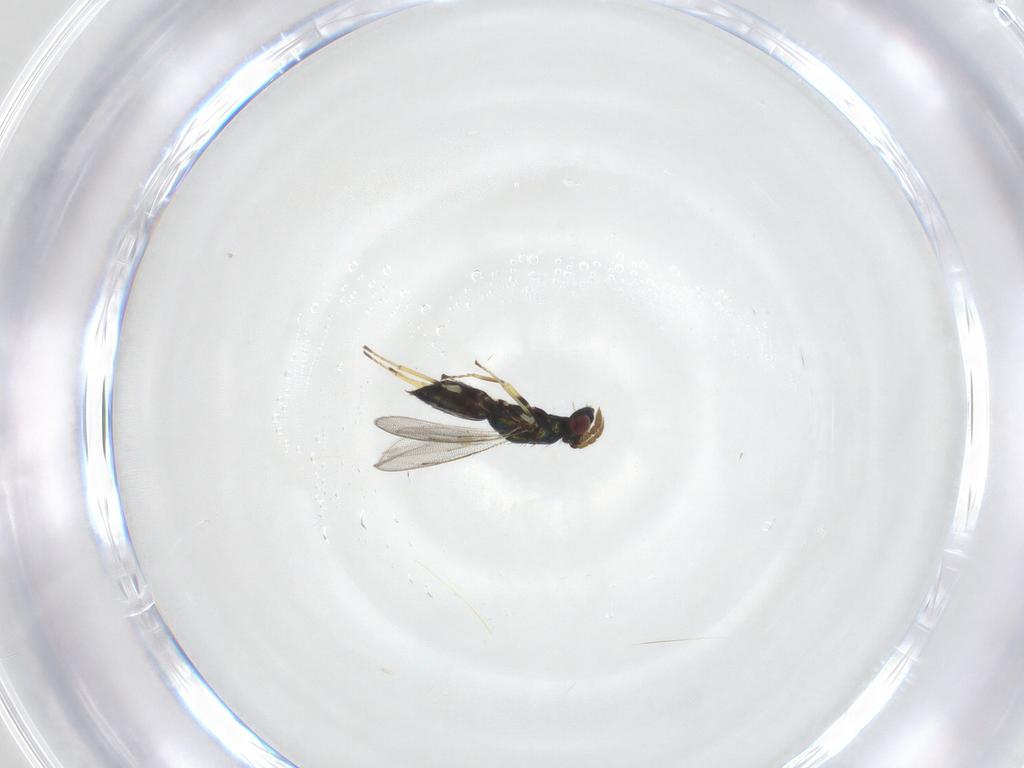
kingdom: Animalia
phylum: Arthropoda
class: Insecta
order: Hymenoptera
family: Eulophidae
